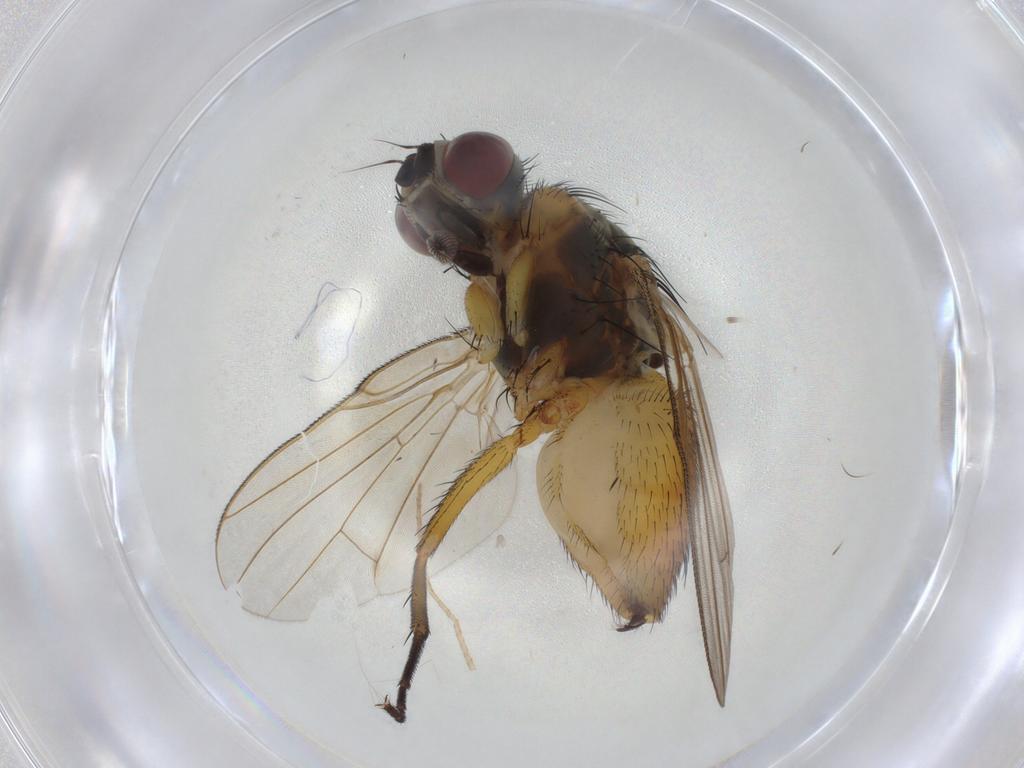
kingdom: Animalia
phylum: Arthropoda
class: Insecta
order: Diptera
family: Muscidae
